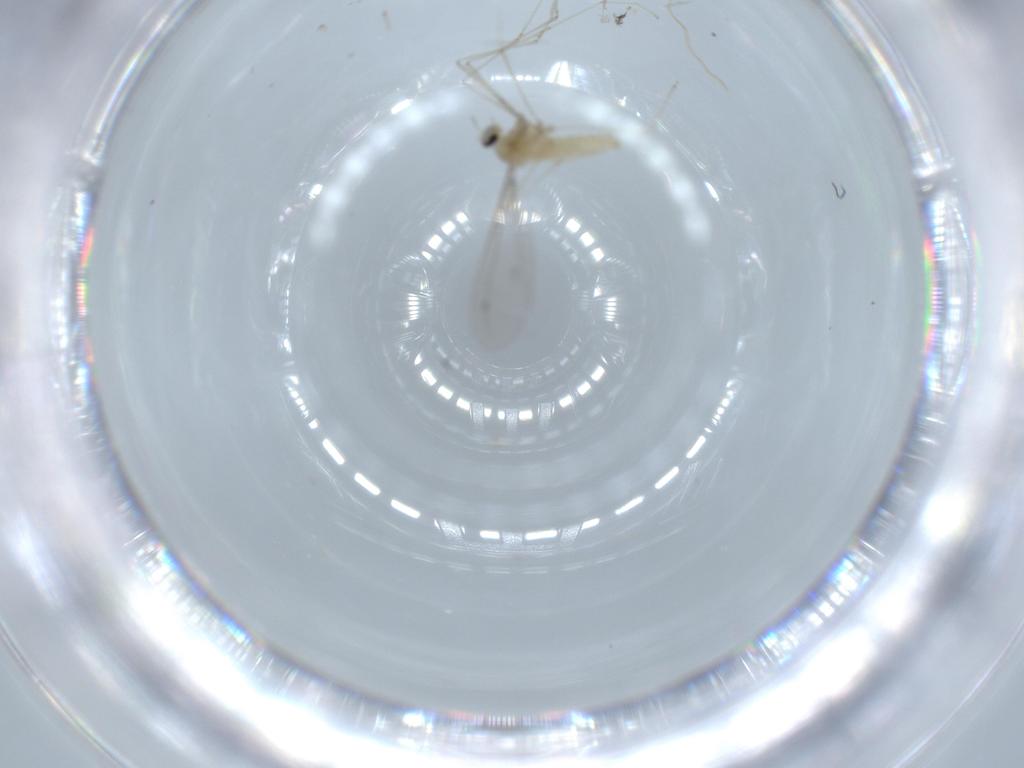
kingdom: Animalia
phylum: Arthropoda
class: Insecta
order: Diptera
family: Cecidomyiidae
